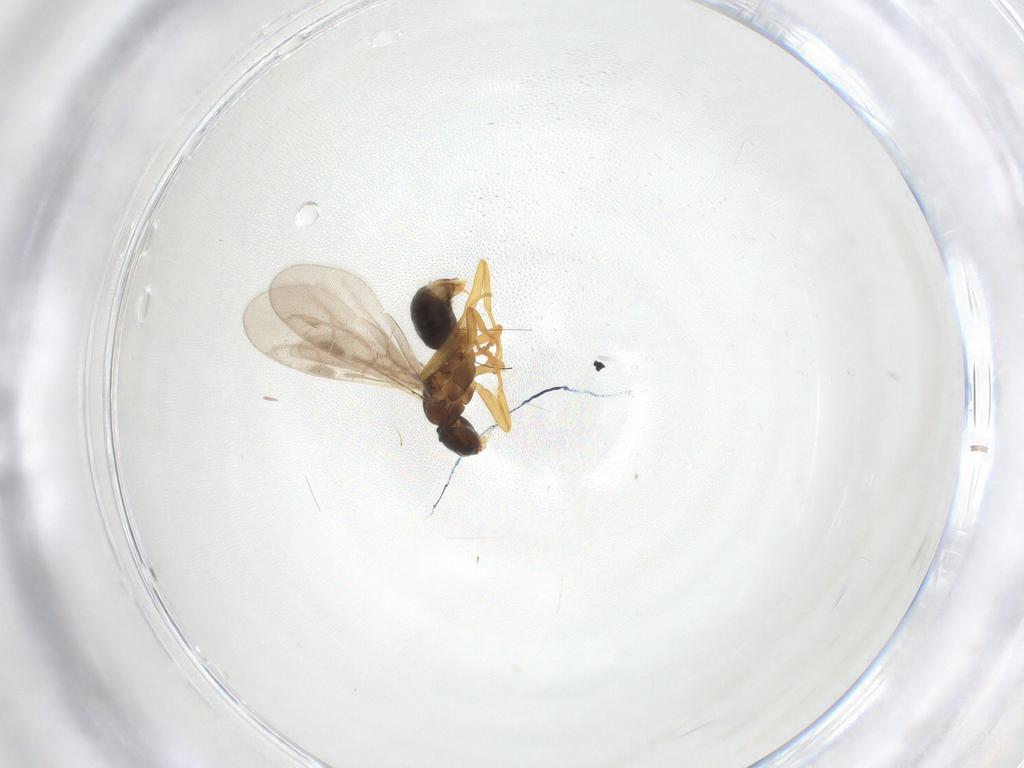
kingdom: Animalia
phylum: Arthropoda
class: Insecta
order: Hymenoptera
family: Formicidae
